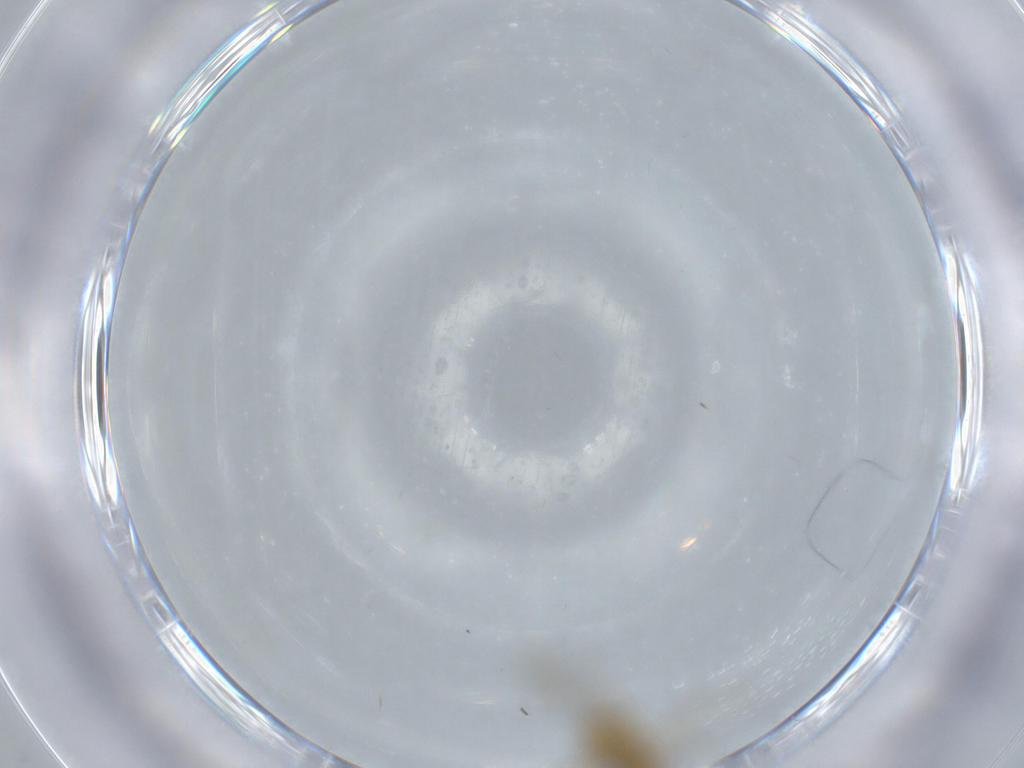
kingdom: Animalia
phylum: Arthropoda
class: Insecta
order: Diptera
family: Chironomidae
